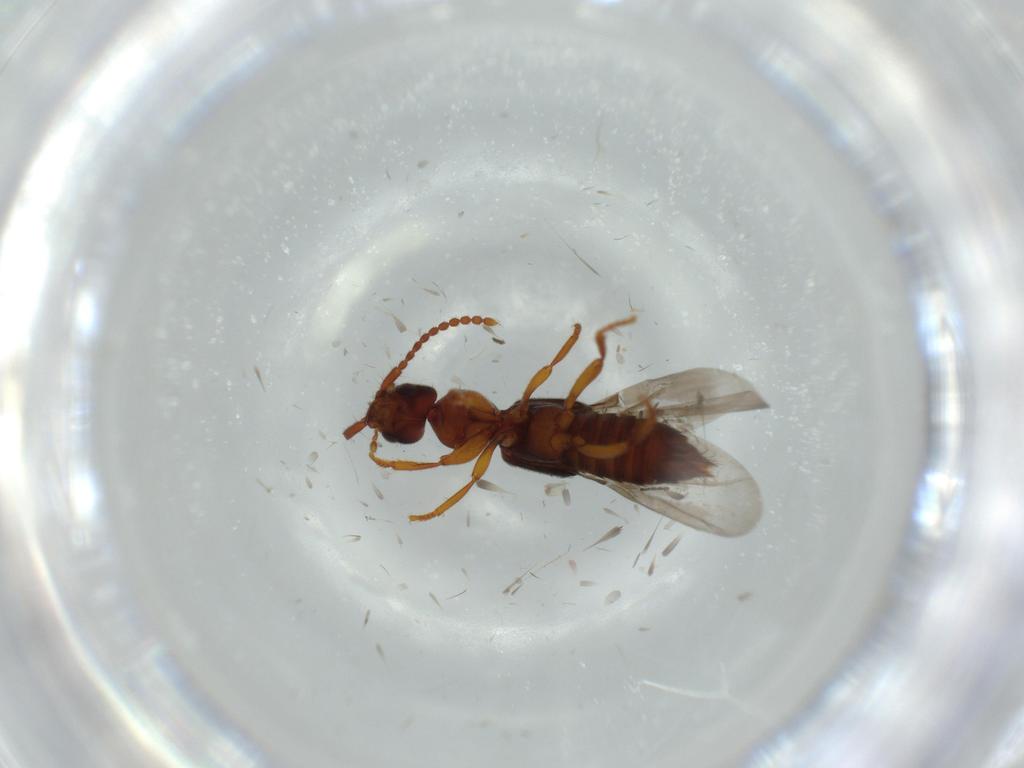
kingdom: Animalia
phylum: Arthropoda
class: Insecta
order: Coleoptera
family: Staphylinidae
